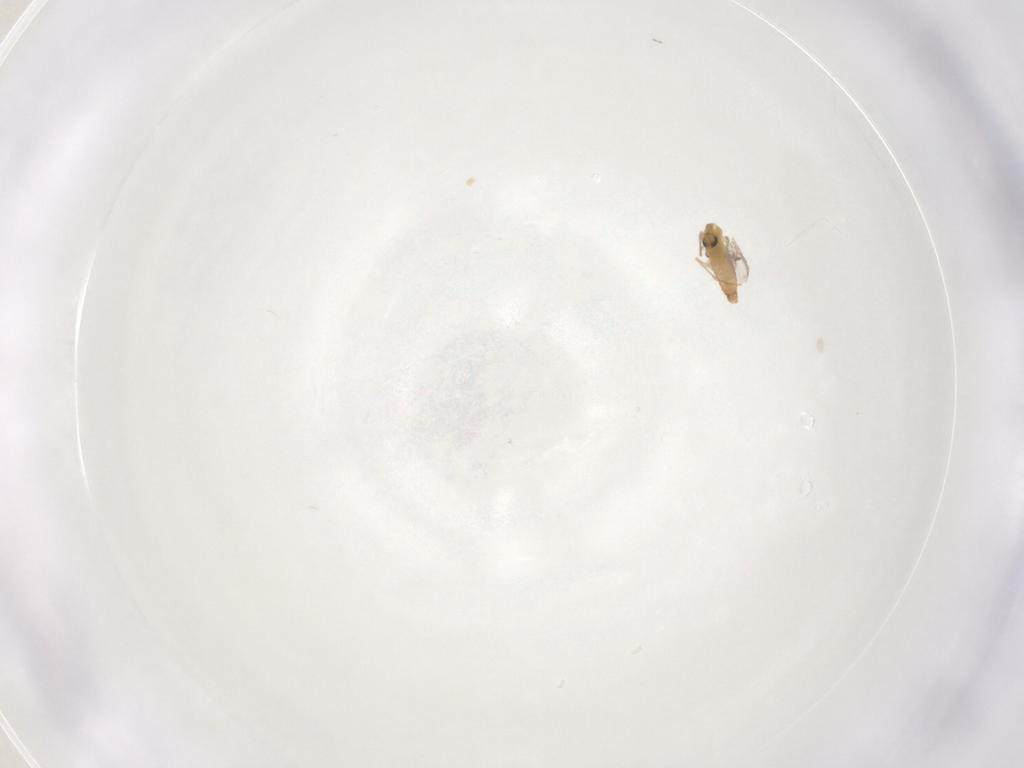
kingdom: Animalia
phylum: Arthropoda
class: Insecta
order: Diptera
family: Chironomidae
